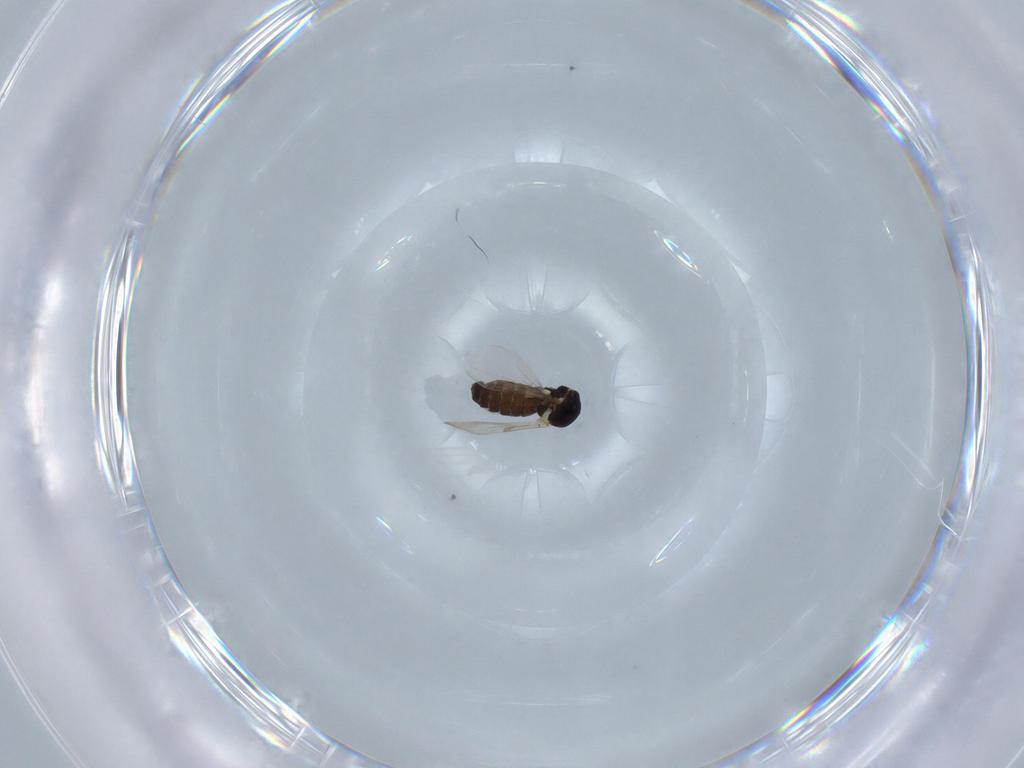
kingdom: Animalia
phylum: Arthropoda
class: Insecta
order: Diptera
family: Ceratopogonidae
